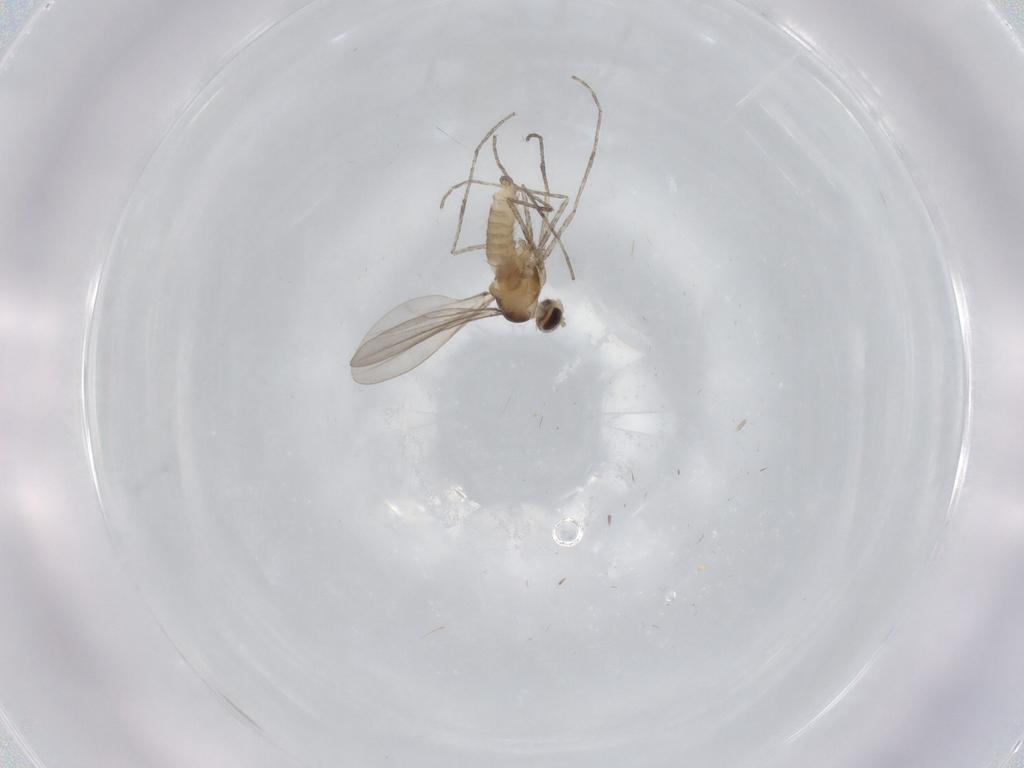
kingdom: Animalia
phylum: Arthropoda
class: Insecta
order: Diptera
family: Cecidomyiidae
